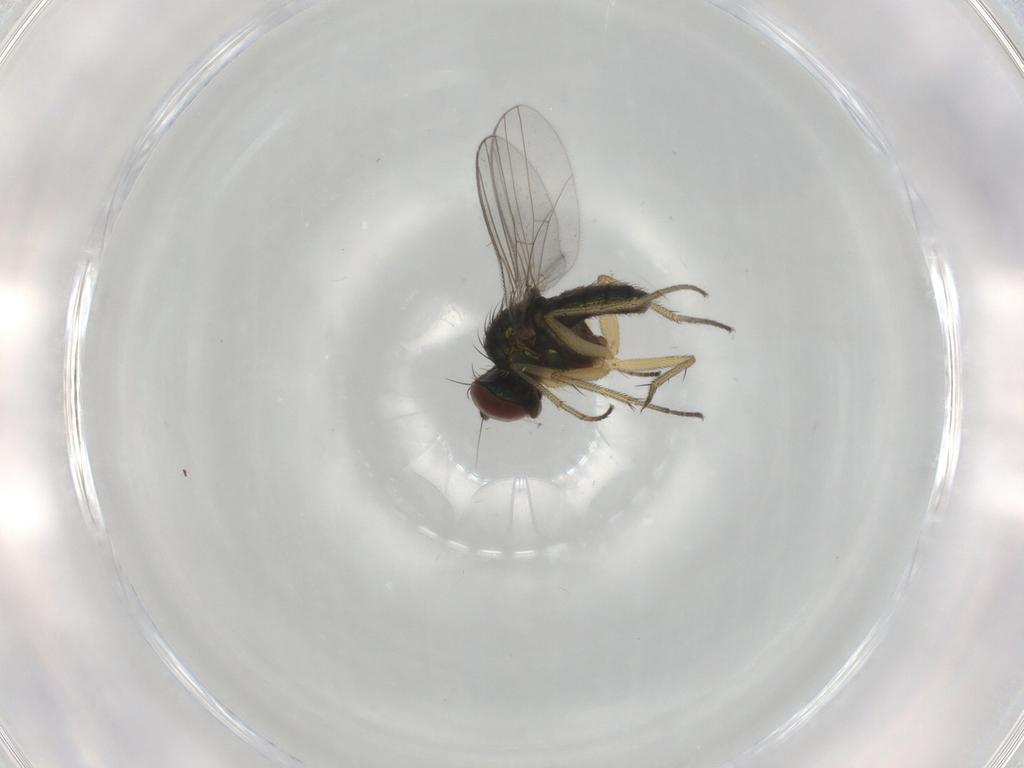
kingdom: Animalia
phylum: Arthropoda
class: Insecta
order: Diptera
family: Dolichopodidae
